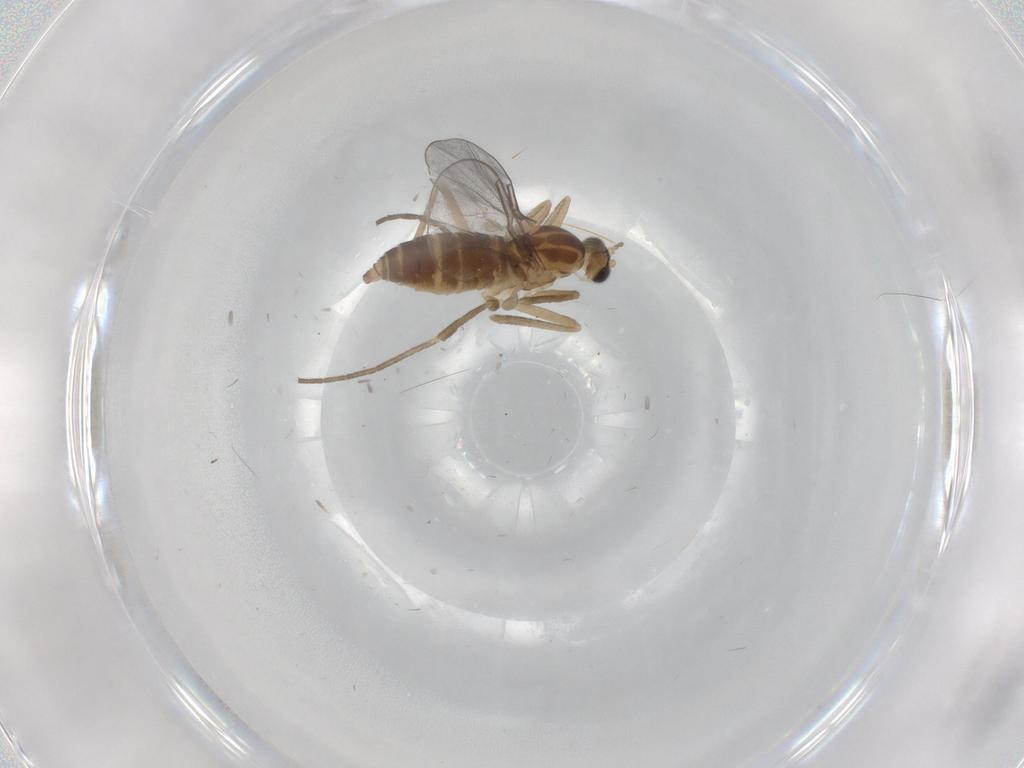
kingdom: Animalia
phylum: Arthropoda
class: Insecta
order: Diptera
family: Cecidomyiidae
